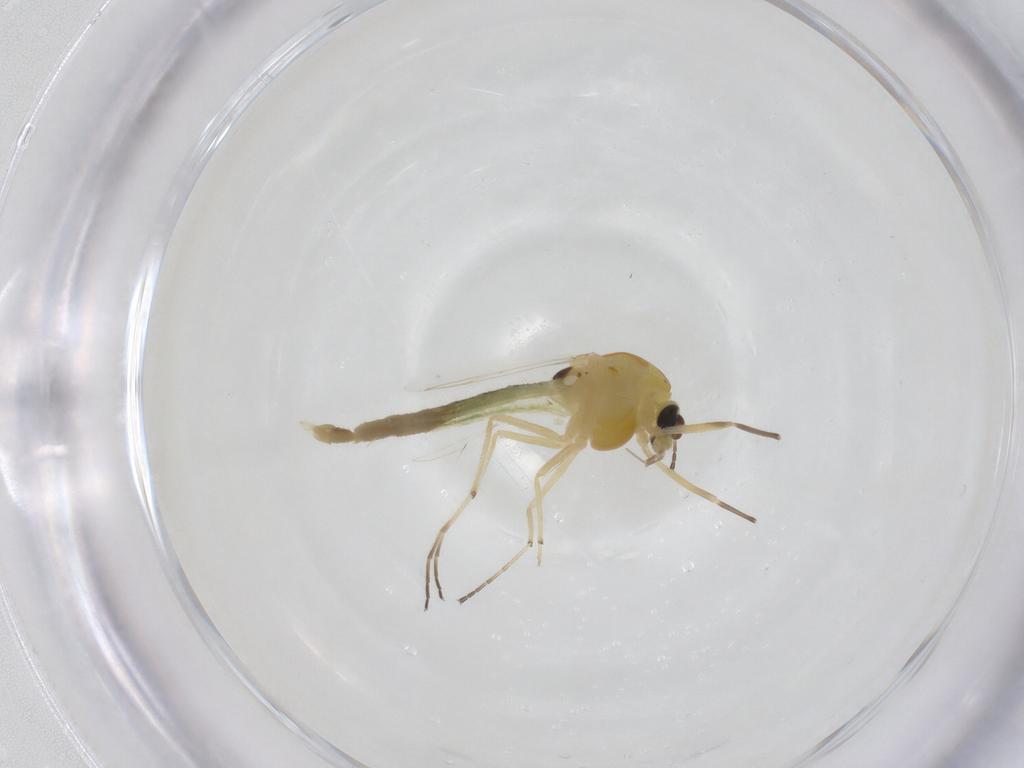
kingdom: Animalia
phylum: Arthropoda
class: Insecta
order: Diptera
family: Chironomidae
